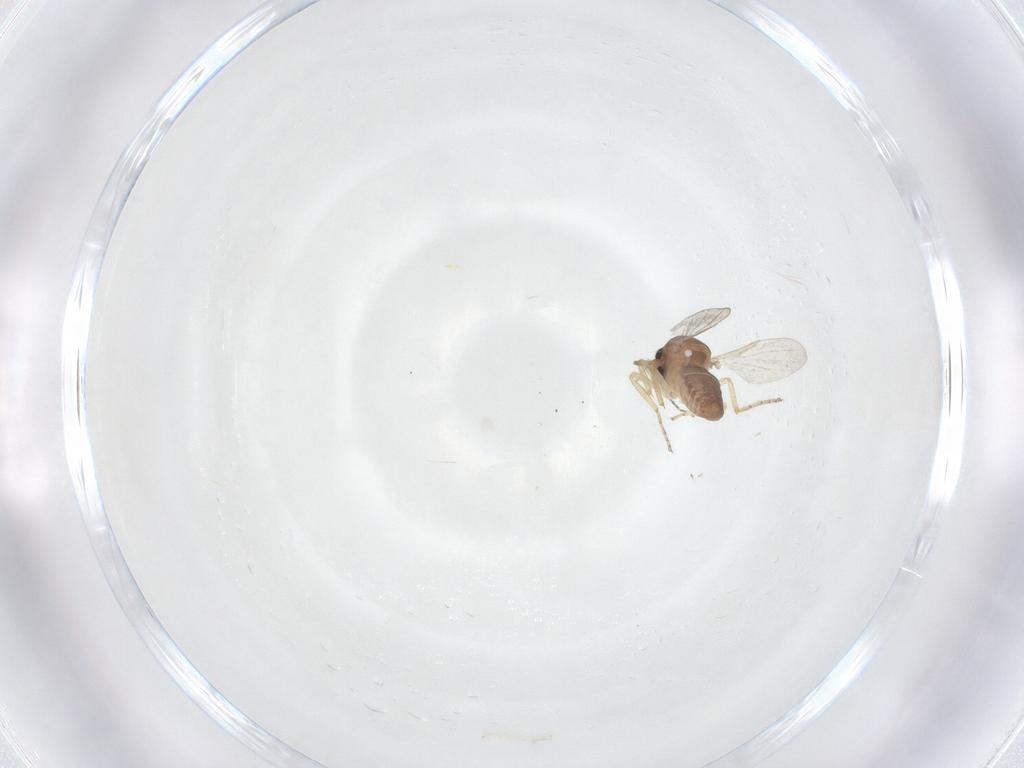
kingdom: Animalia
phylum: Arthropoda
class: Insecta
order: Diptera
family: Ceratopogonidae
